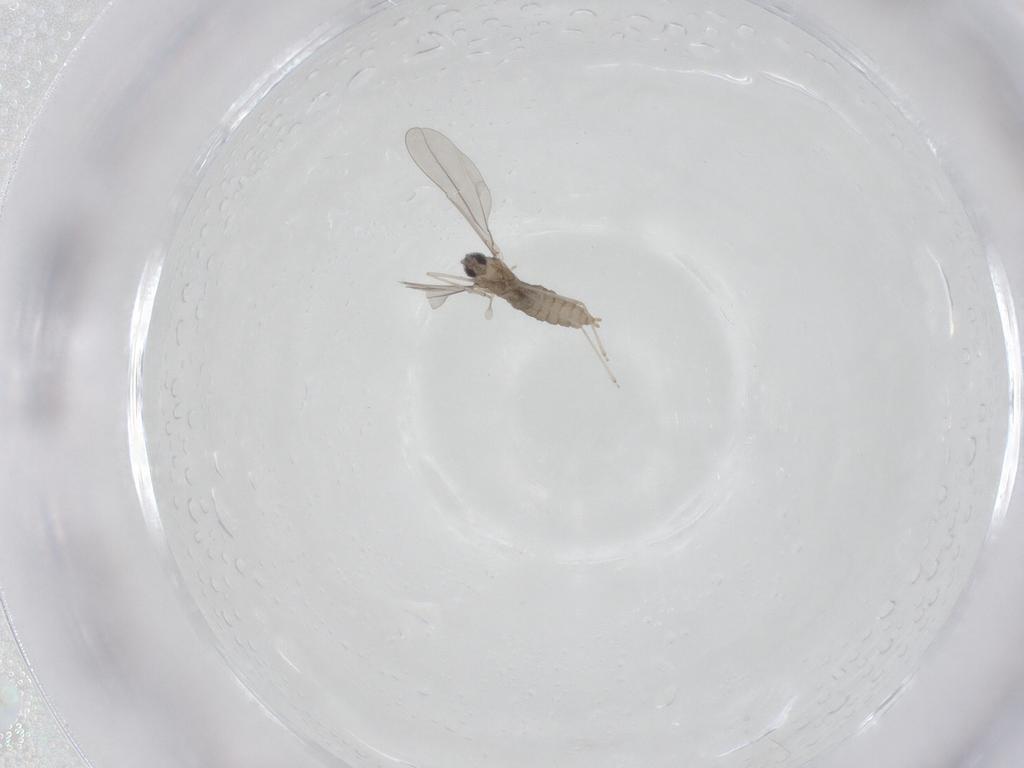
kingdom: Animalia
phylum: Arthropoda
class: Insecta
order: Diptera
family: Cecidomyiidae
